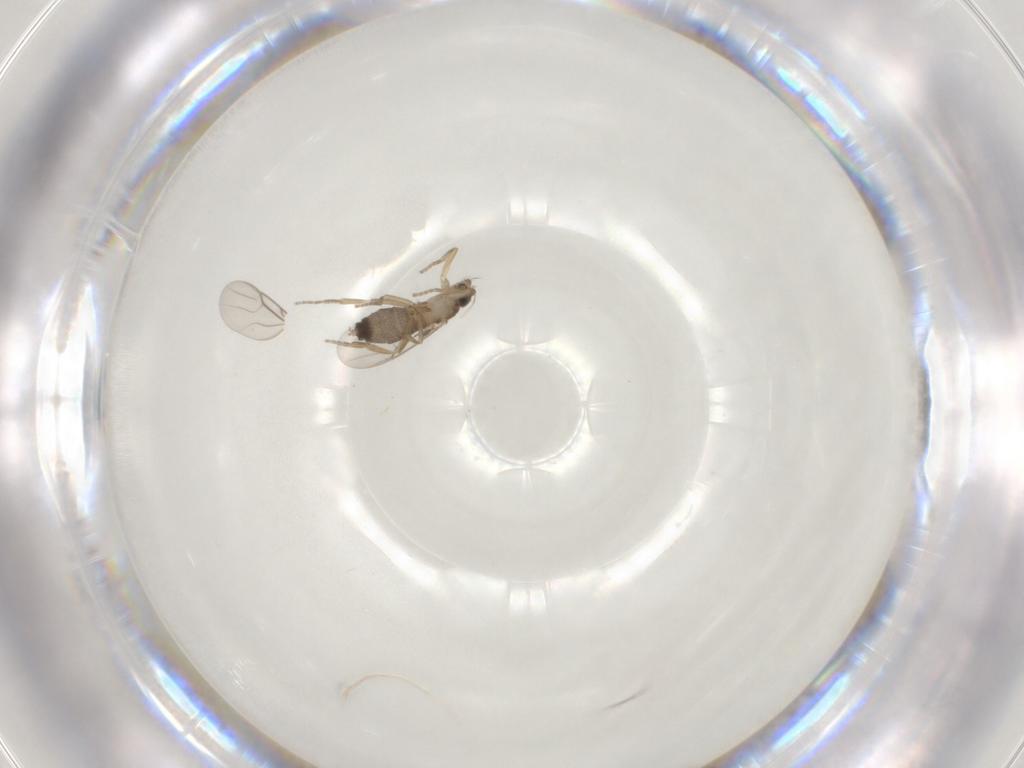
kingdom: Animalia
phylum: Arthropoda
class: Insecta
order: Diptera
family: Phoridae
